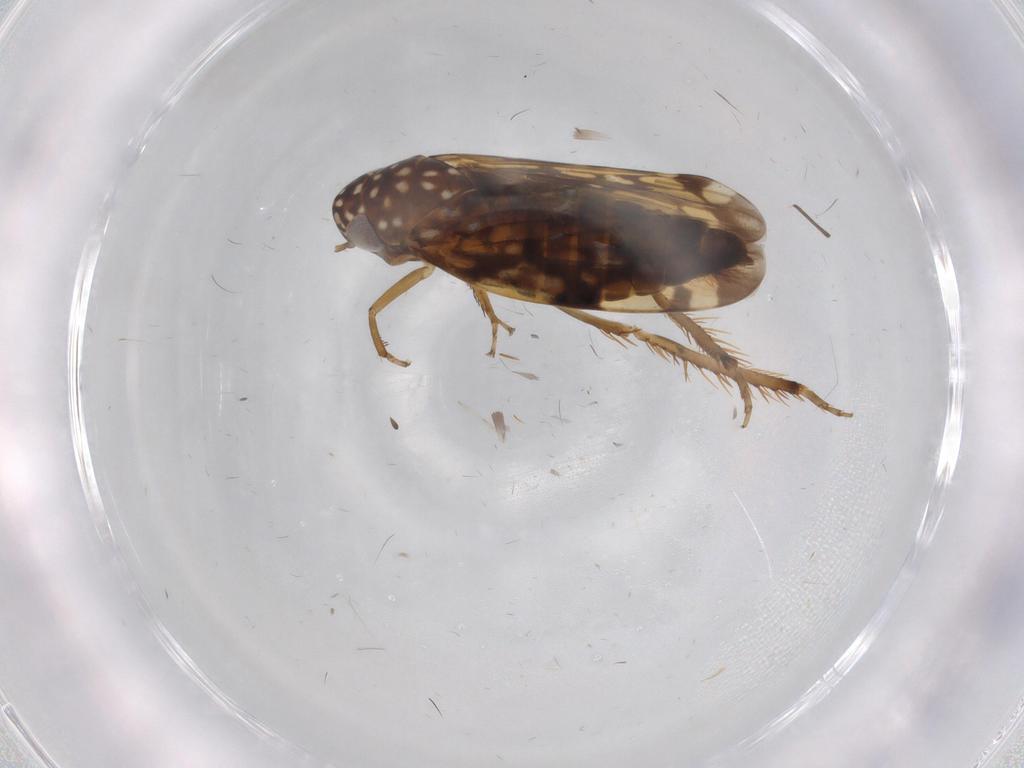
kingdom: Animalia
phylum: Arthropoda
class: Insecta
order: Hemiptera
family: Cicadellidae
